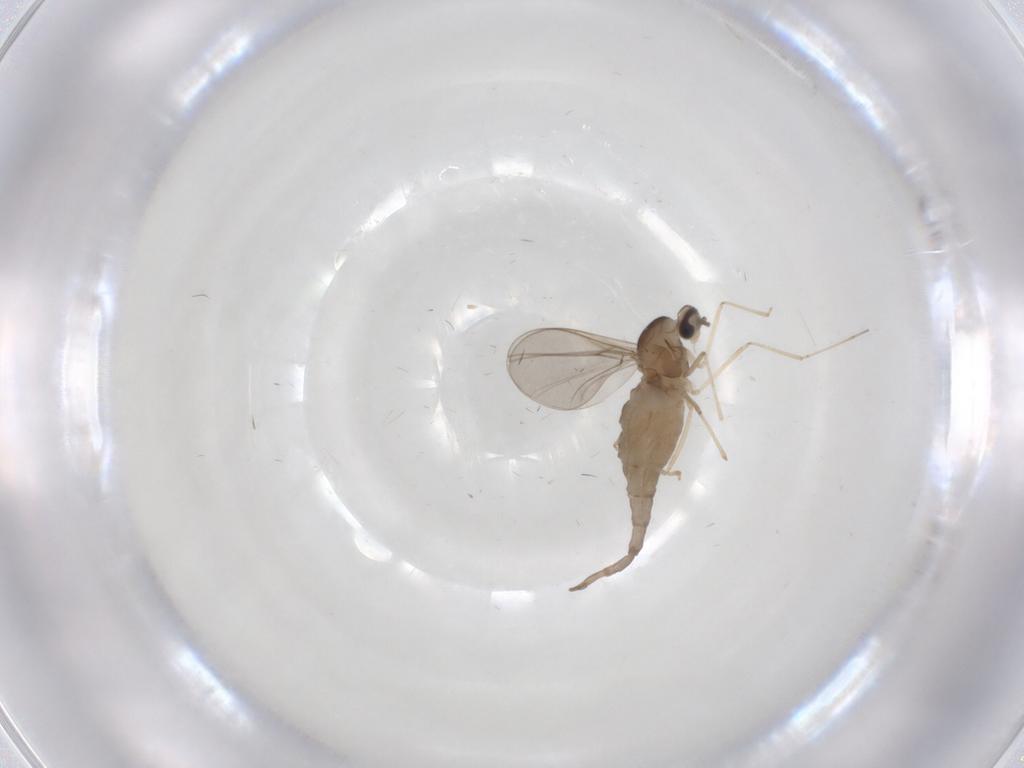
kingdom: Animalia
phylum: Arthropoda
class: Insecta
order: Diptera
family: Cecidomyiidae
